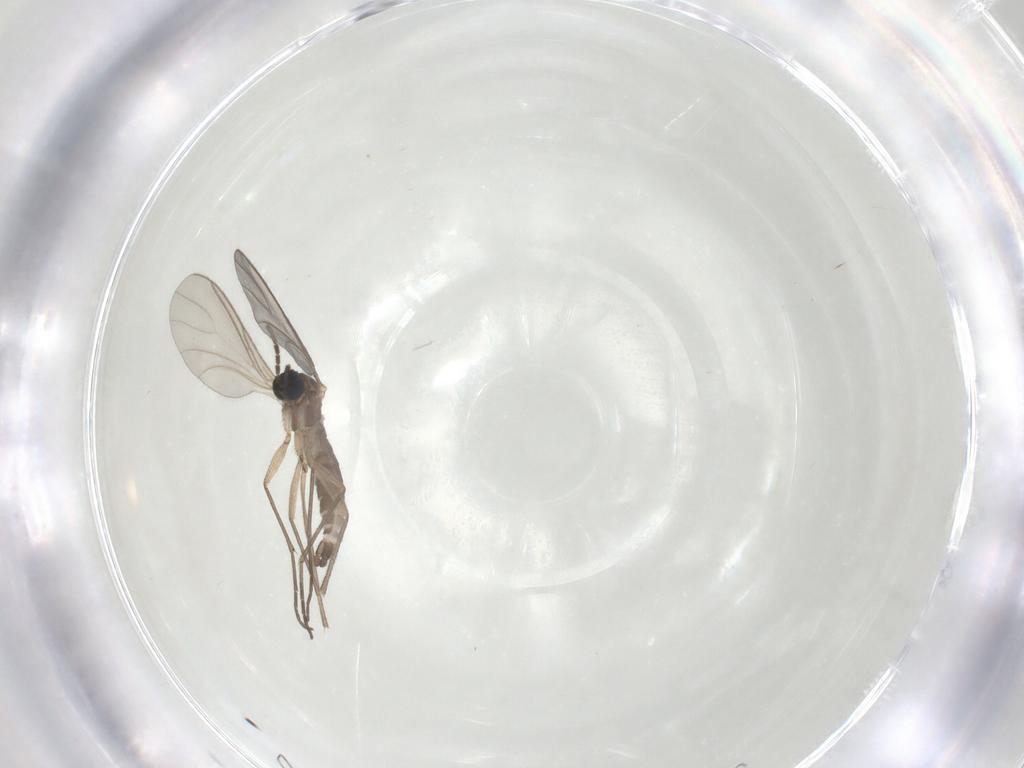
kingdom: Animalia
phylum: Arthropoda
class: Insecta
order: Diptera
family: Sciaridae
